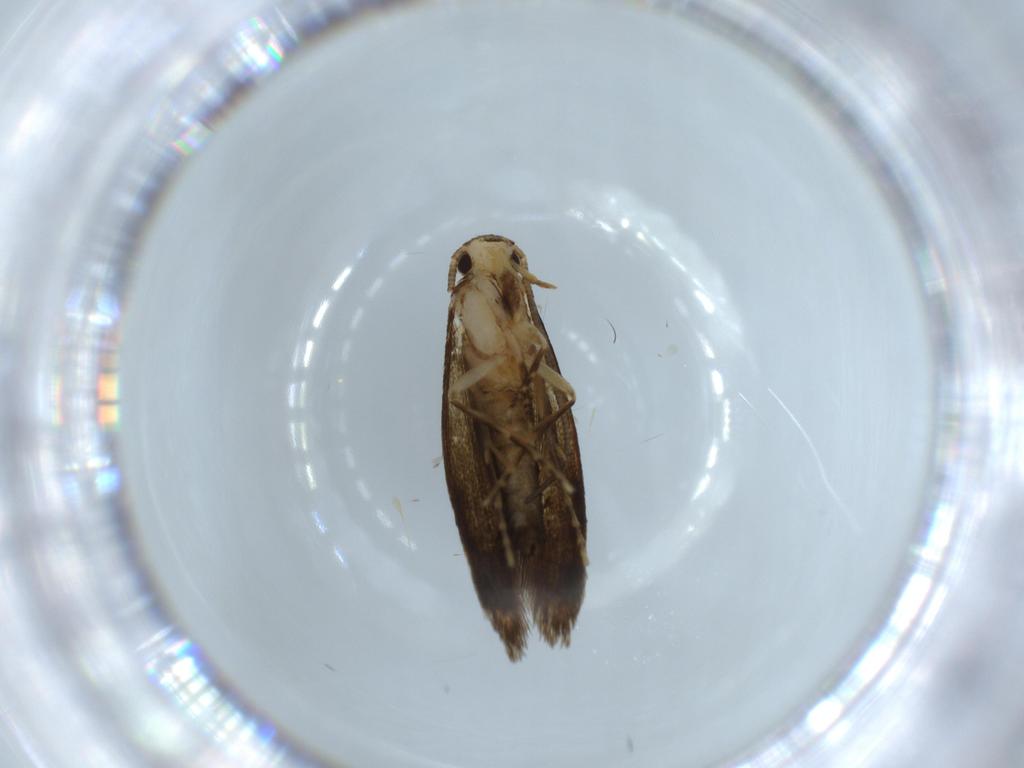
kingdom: Animalia
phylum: Arthropoda
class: Insecta
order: Lepidoptera
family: Tineidae
